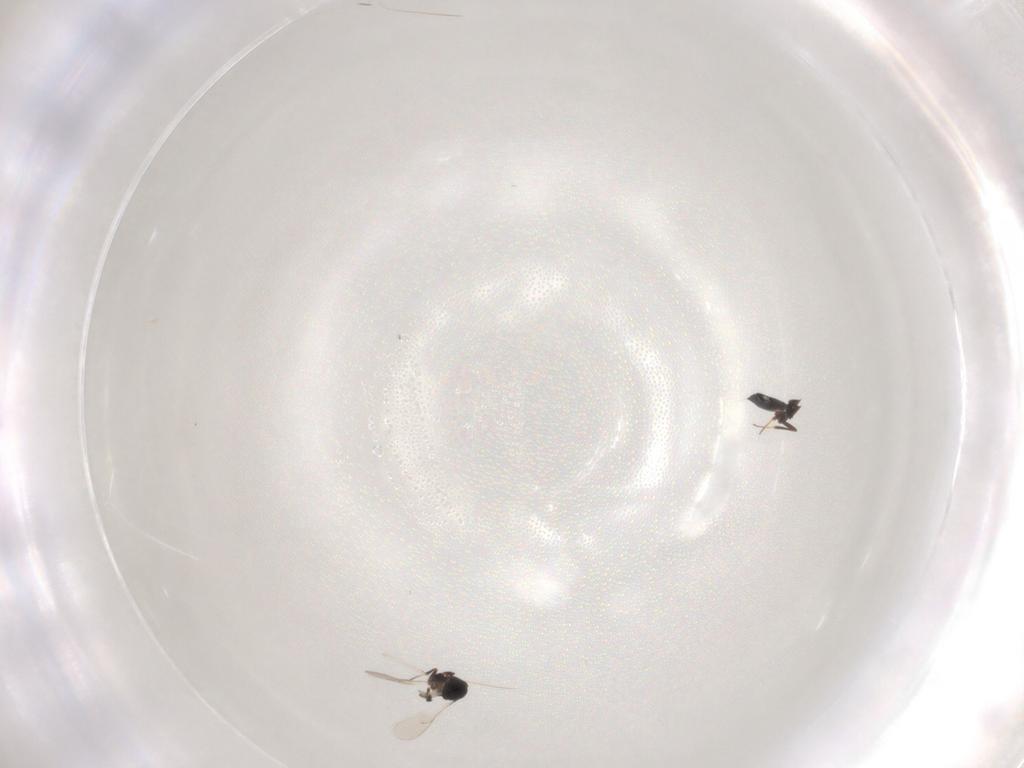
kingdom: Animalia
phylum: Arthropoda
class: Insecta
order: Hymenoptera
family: Scelionidae
